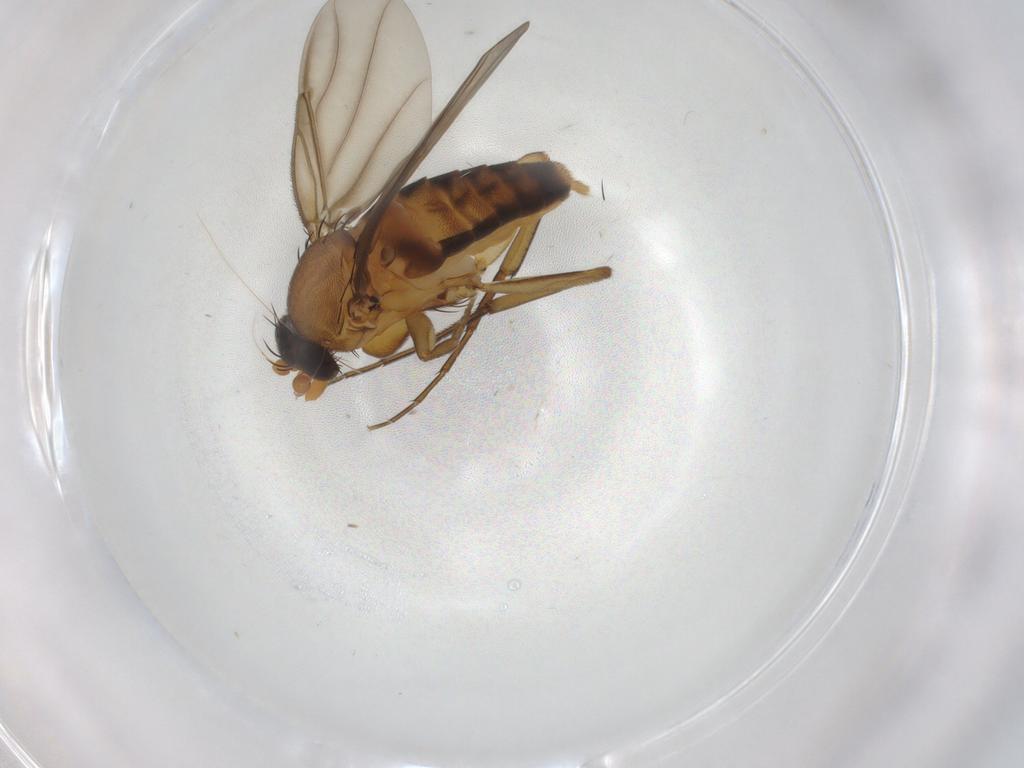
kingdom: Animalia
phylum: Arthropoda
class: Insecta
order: Diptera
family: Phoridae
